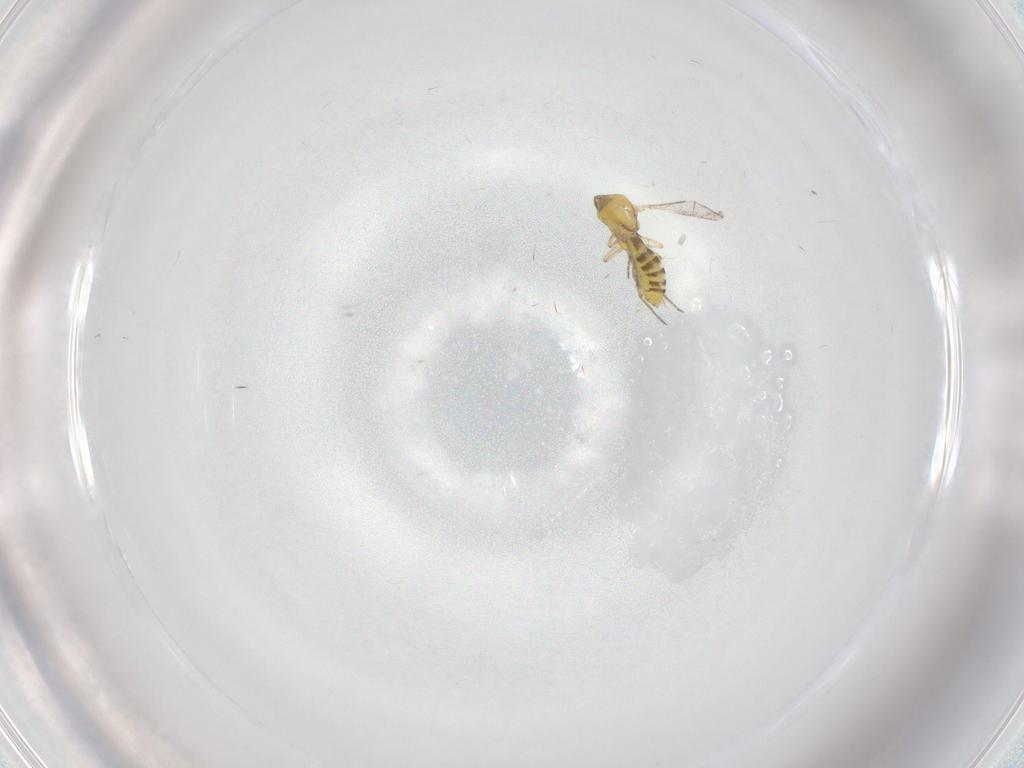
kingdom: Animalia
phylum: Arthropoda
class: Insecta
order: Diptera
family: Ceratopogonidae
